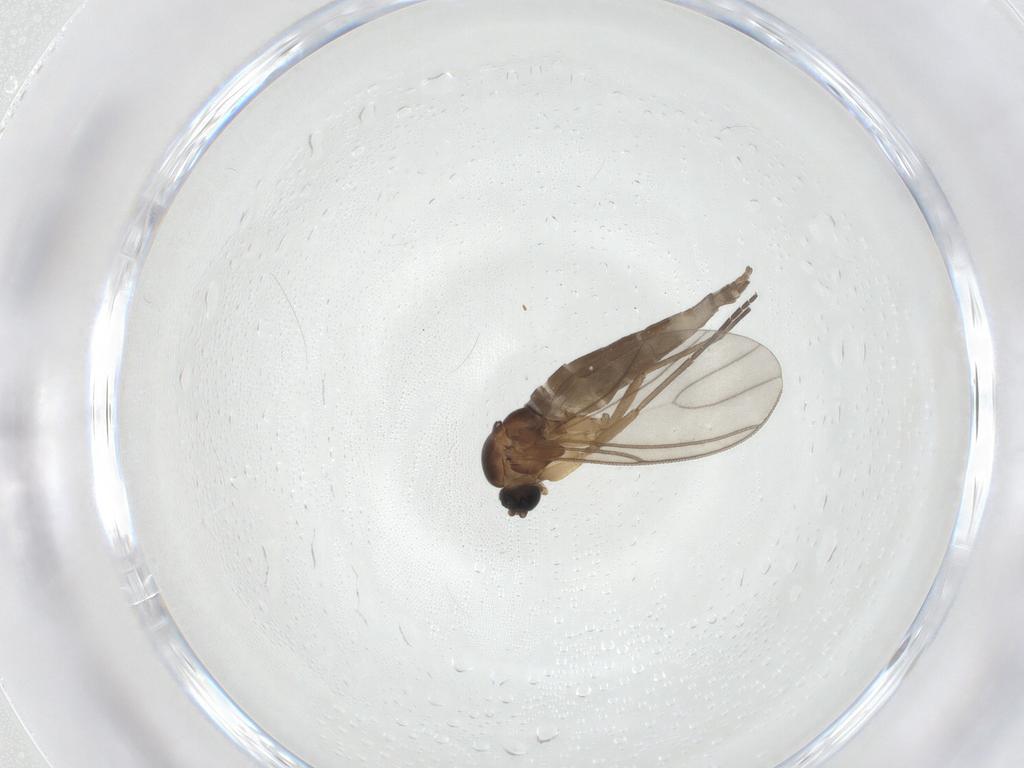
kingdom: Animalia
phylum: Arthropoda
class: Insecta
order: Diptera
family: Sciaridae
